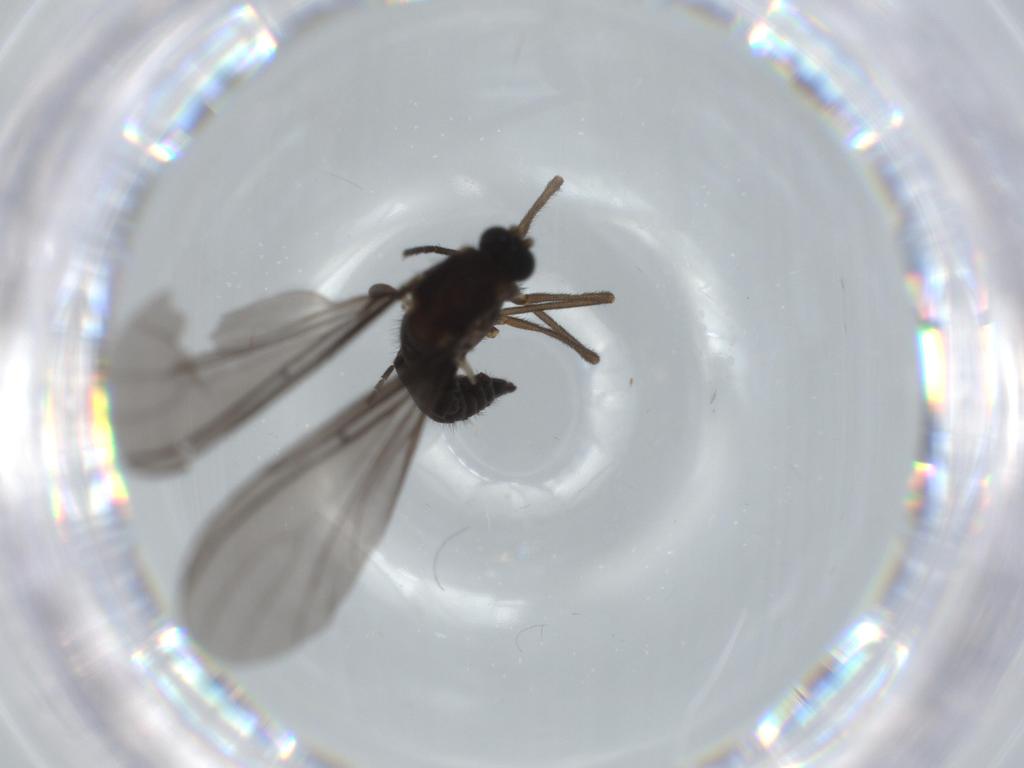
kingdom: Animalia
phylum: Arthropoda
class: Insecta
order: Diptera
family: Sciaridae
